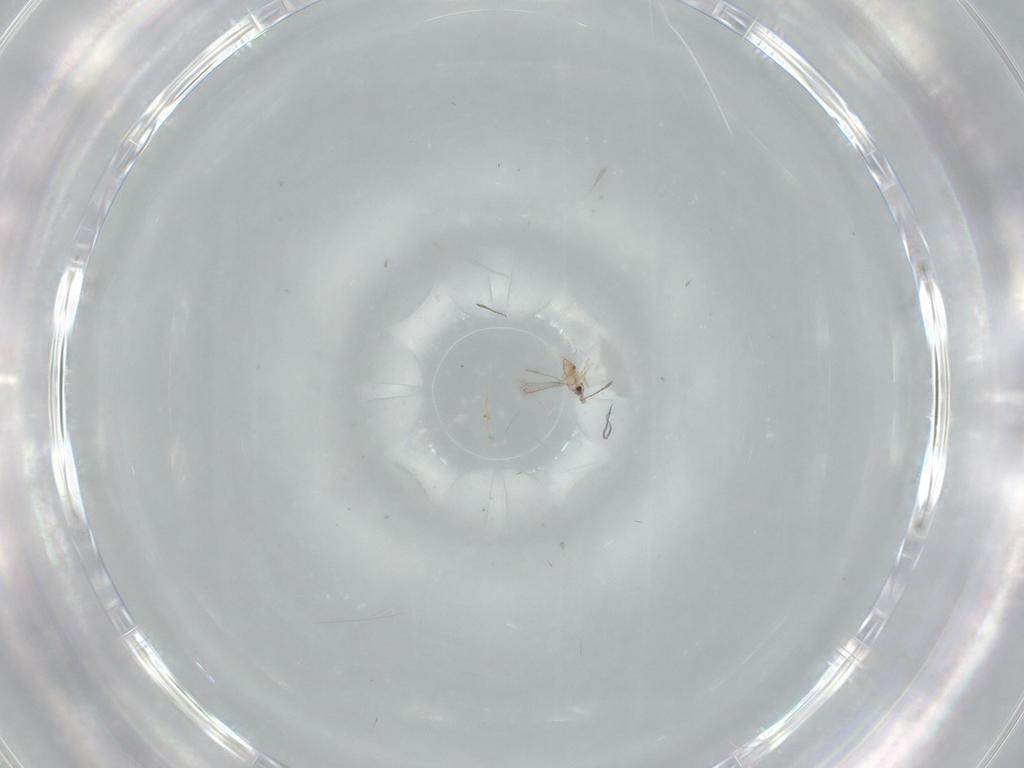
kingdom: Animalia
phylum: Arthropoda
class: Insecta
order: Hymenoptera
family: Mymaridae
